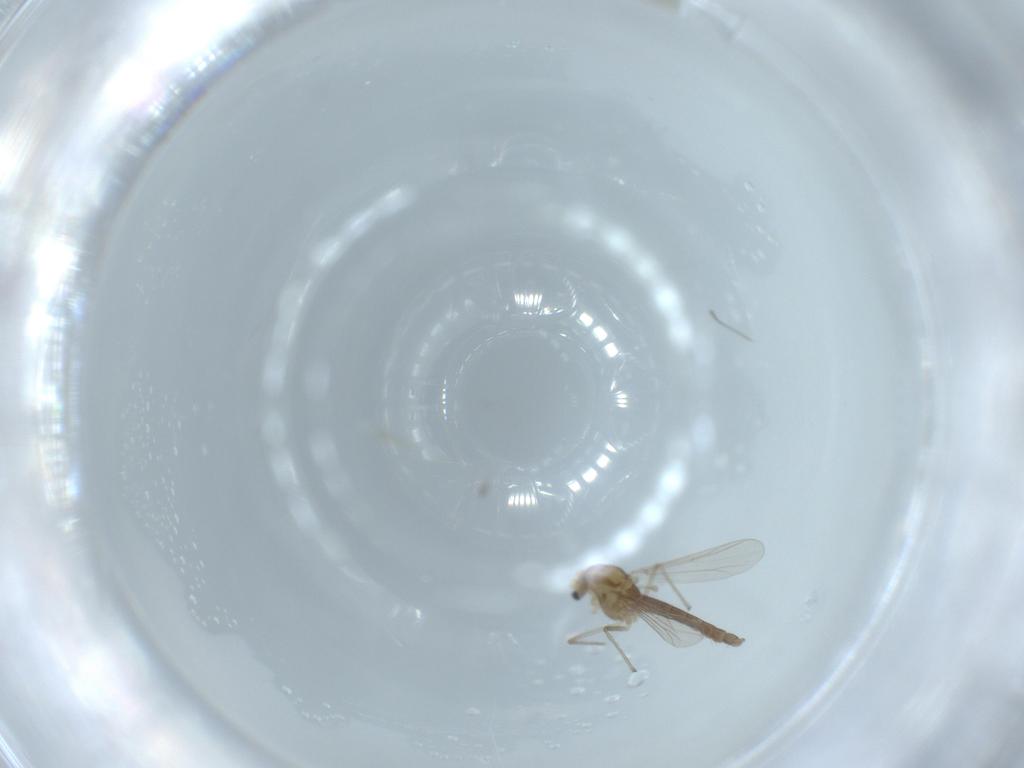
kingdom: Animalia
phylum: Arthropoda
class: Insecta
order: Diptera
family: Chironomidae
